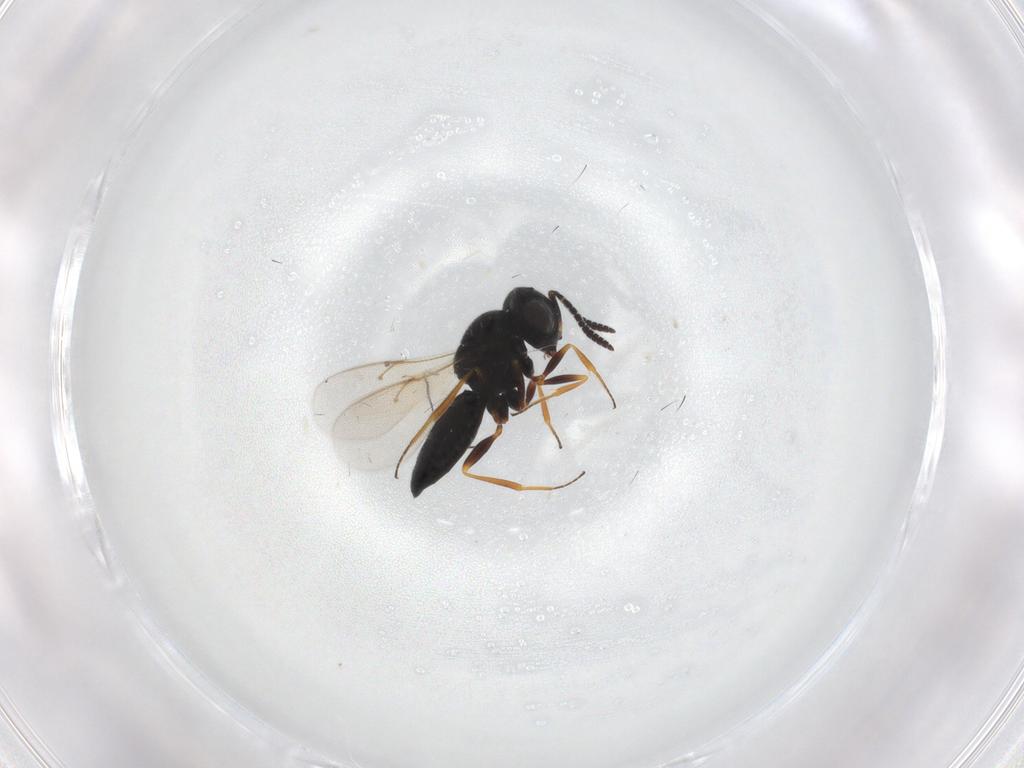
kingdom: Animalia
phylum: Arthropoda
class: Insecta
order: Hymenoptera
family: Scelionidae
